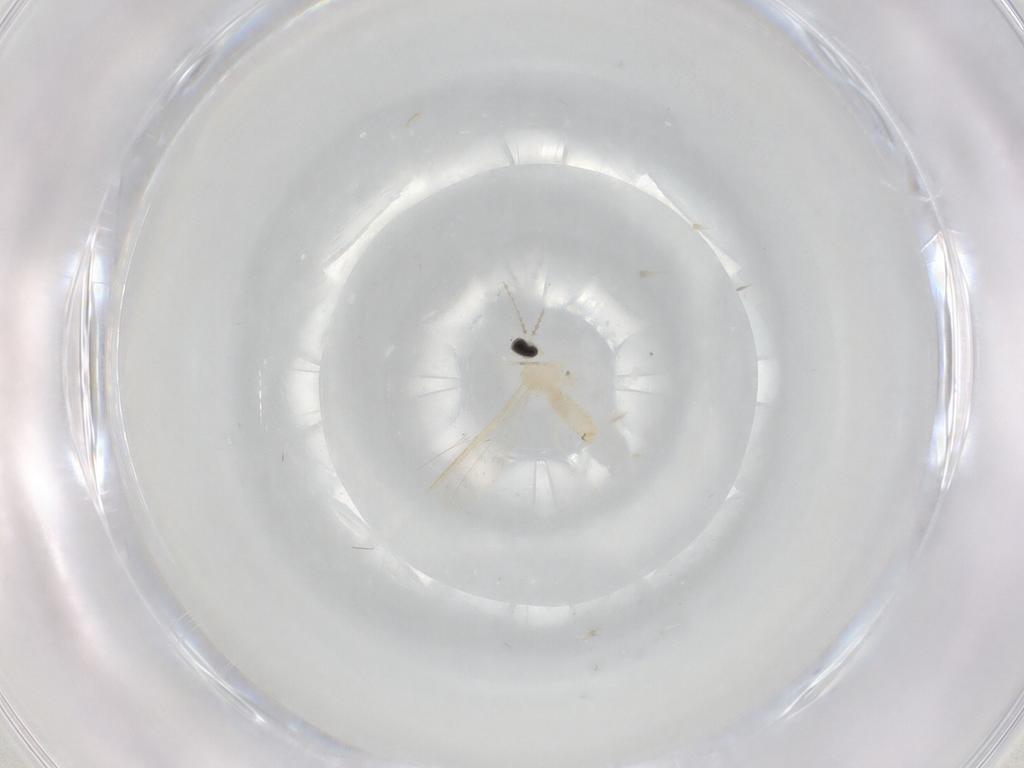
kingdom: Animalia
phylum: Arthropoda
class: Insecta
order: Diptera
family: Cecidomyiidae
